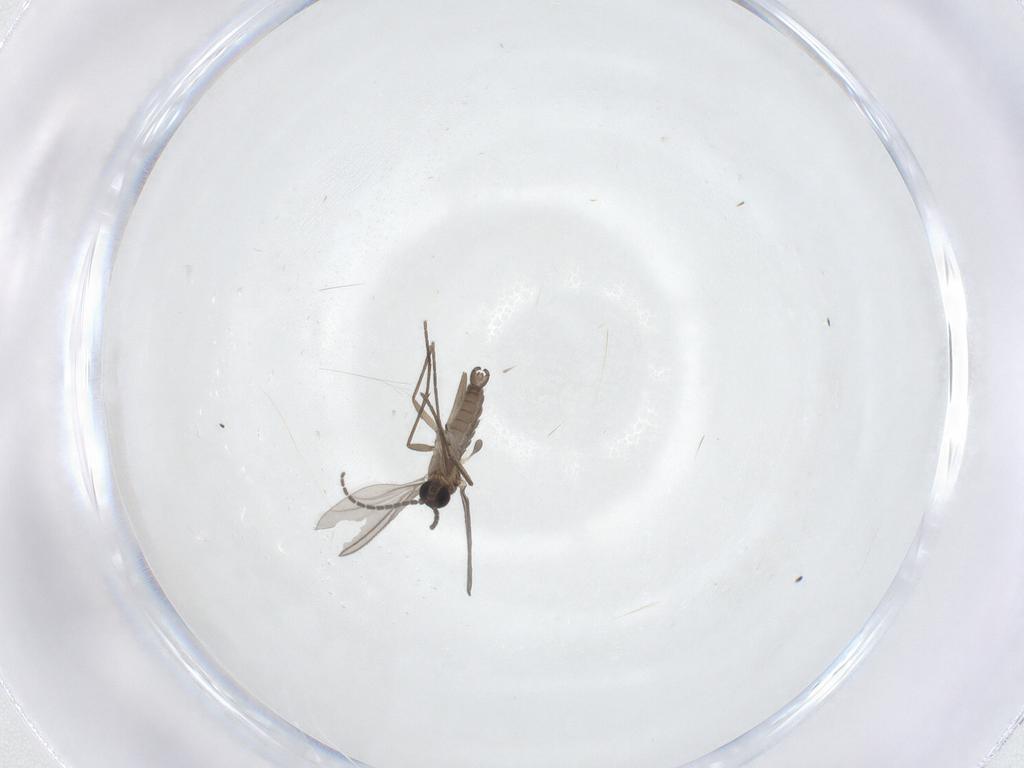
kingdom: Animalia
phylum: Arthropoda
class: Insecta
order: Diptera
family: Sciaridae
